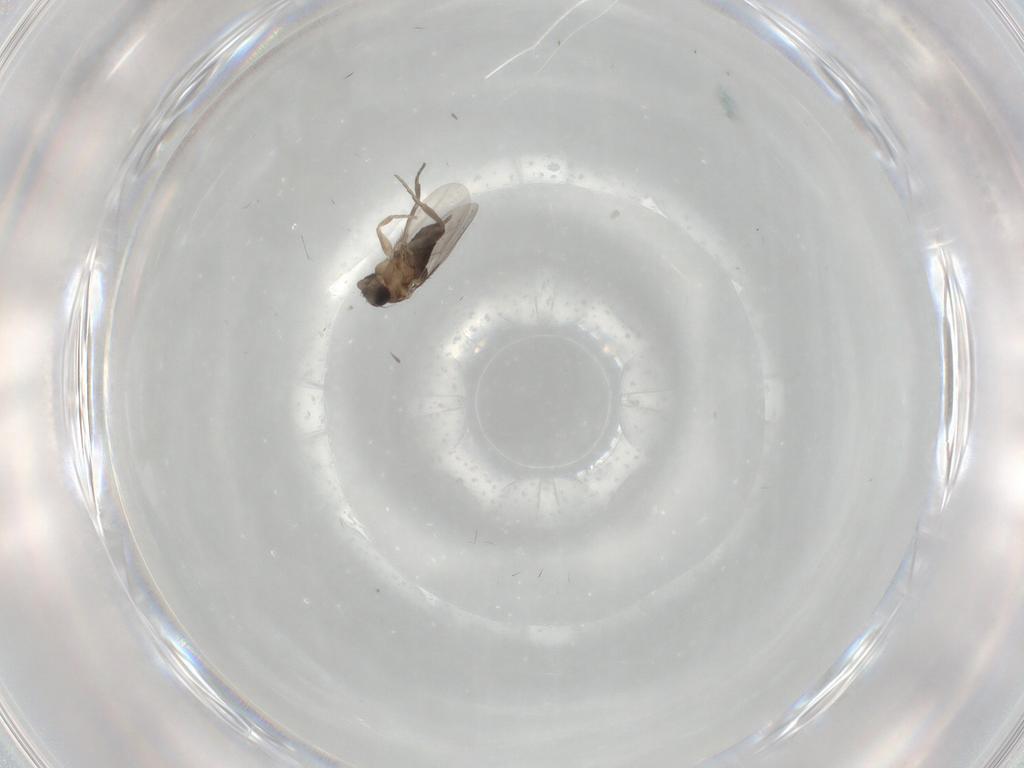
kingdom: Animalia
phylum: Arthropoda
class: Insecta
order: Diptera
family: Phoridae
